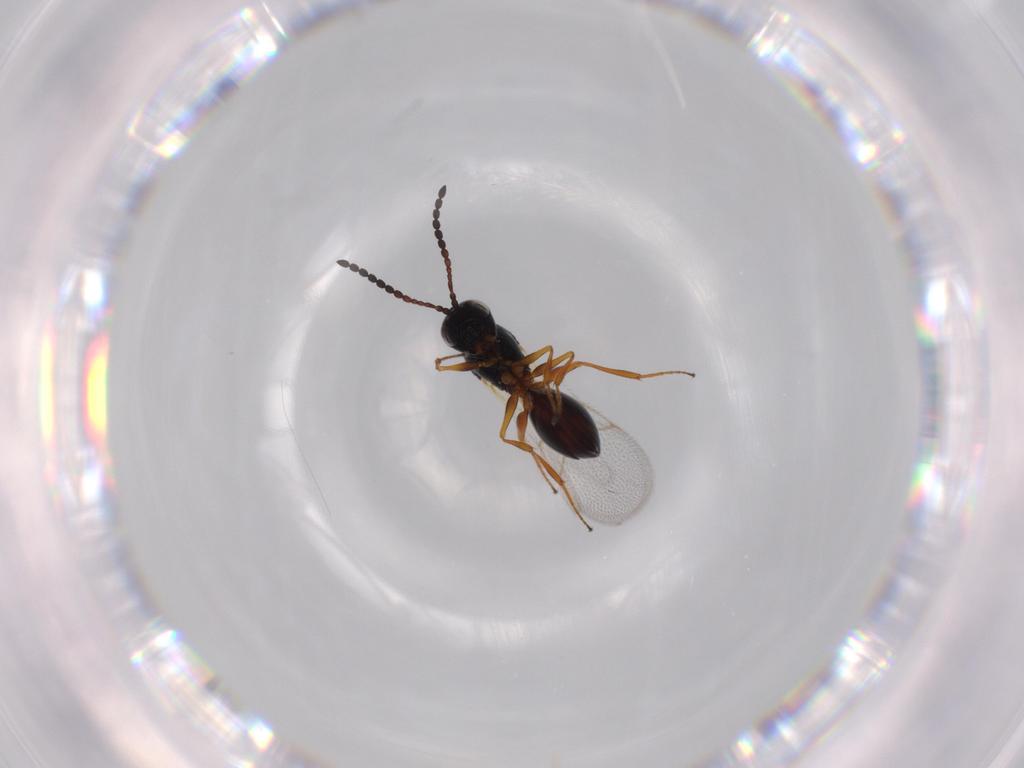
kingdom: Animalia
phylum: Arthropoda
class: Insecta
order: Hymenoptera
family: Figitidae
